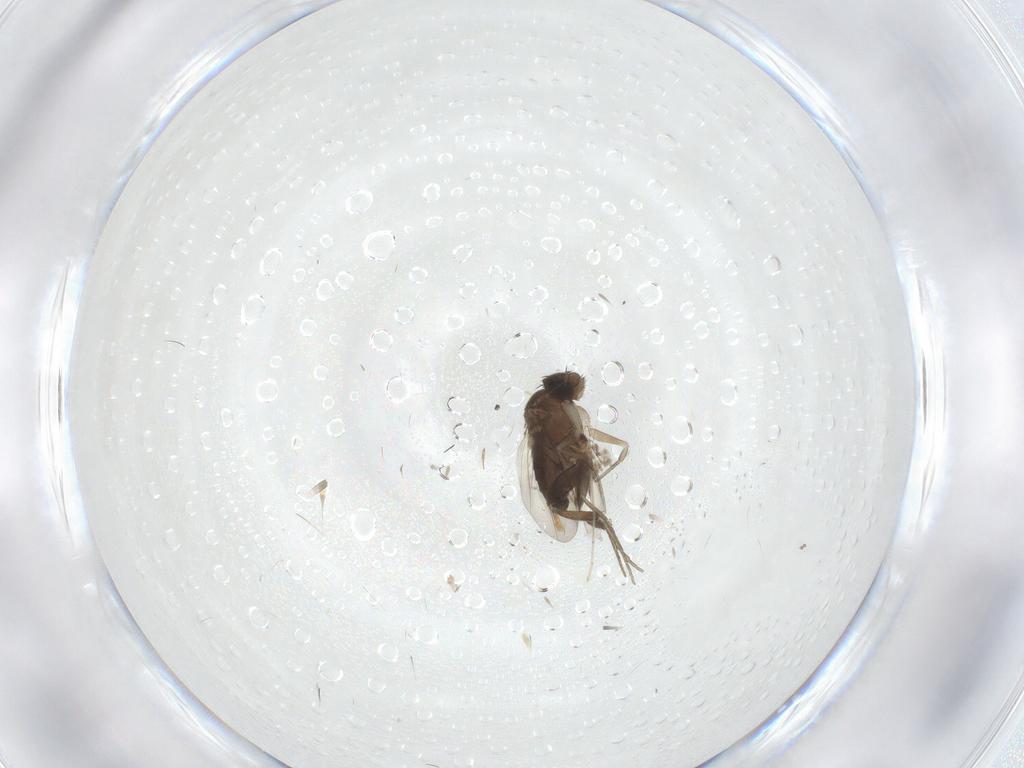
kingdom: Animalia
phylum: Arthropoda
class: Insecta
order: Diptera
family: Phoridae
